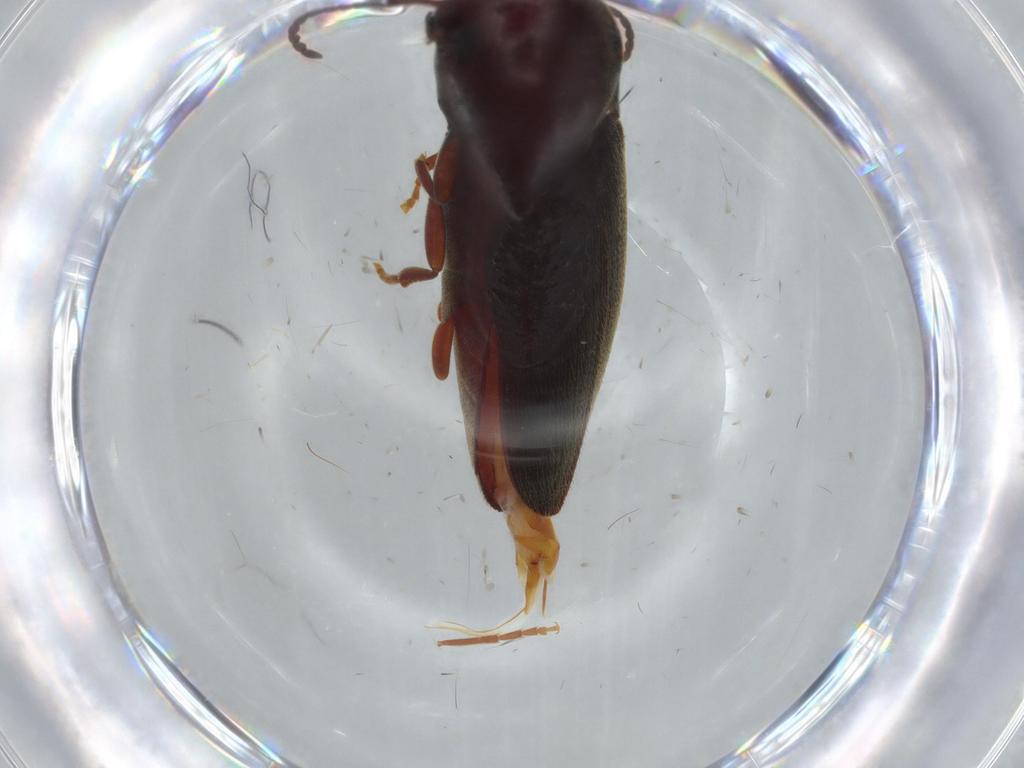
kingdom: Animalia
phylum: Arthropoda
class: Insecta
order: Coleoptera
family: Eucnemidae
